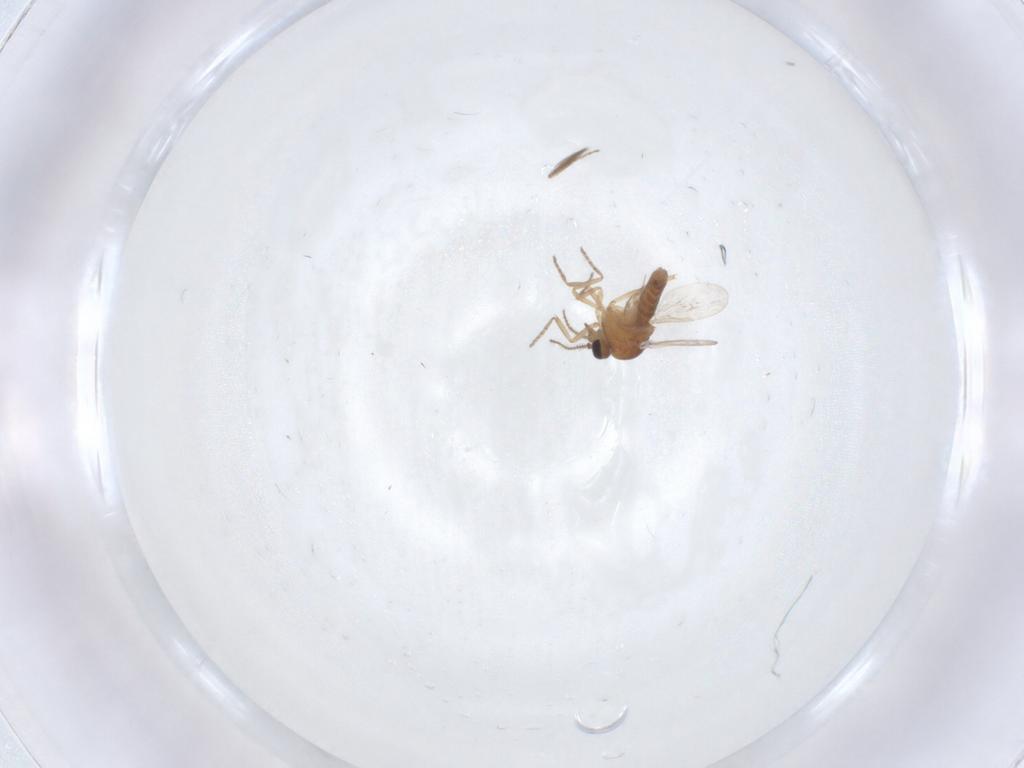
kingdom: Animalia
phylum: Arthropoda
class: Insecta
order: Diptera
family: Ceratopogonidae
